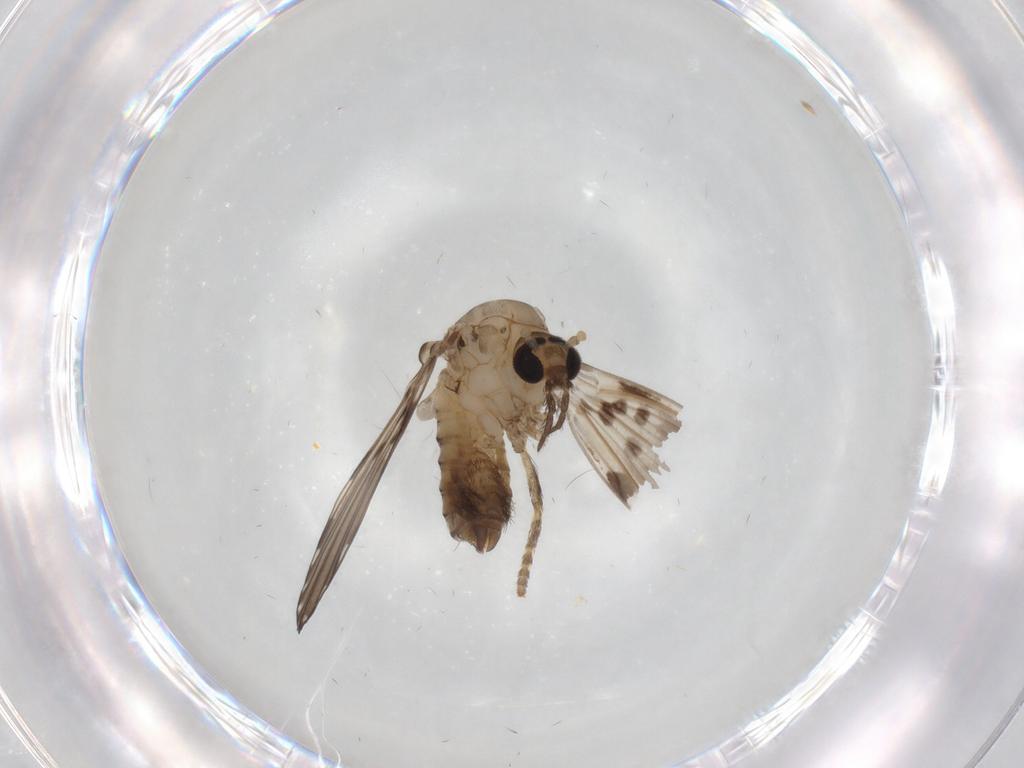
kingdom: Animalia
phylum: Arthropoda
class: Insecta
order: Diptera
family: Psychodidae
